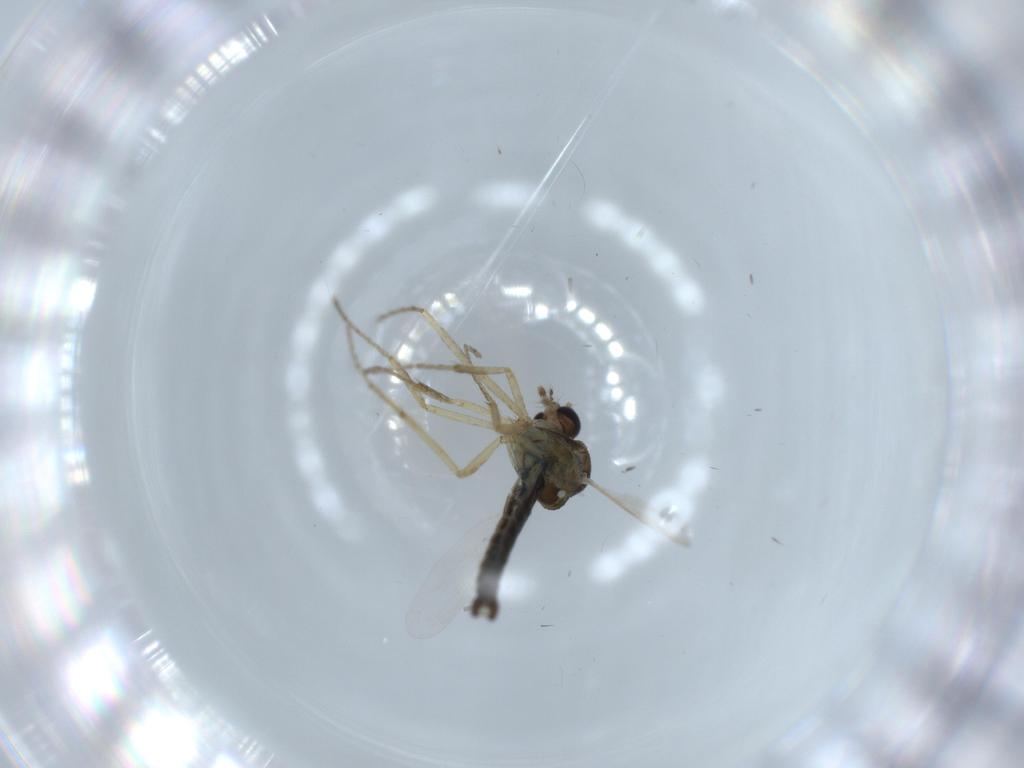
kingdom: Animalia
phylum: Arthropoda
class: Insecta
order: Diptera
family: Ceratopogonidae
